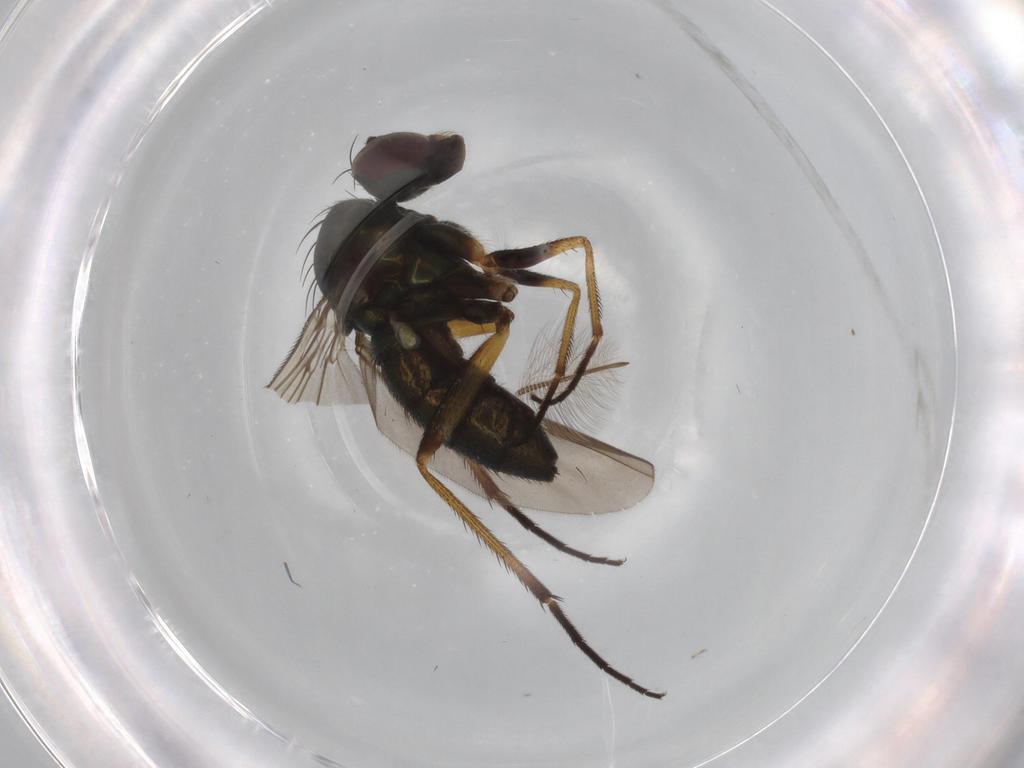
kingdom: Animalia
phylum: Arthropoda
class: Insecta
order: Diptera
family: Dolichopodidae
